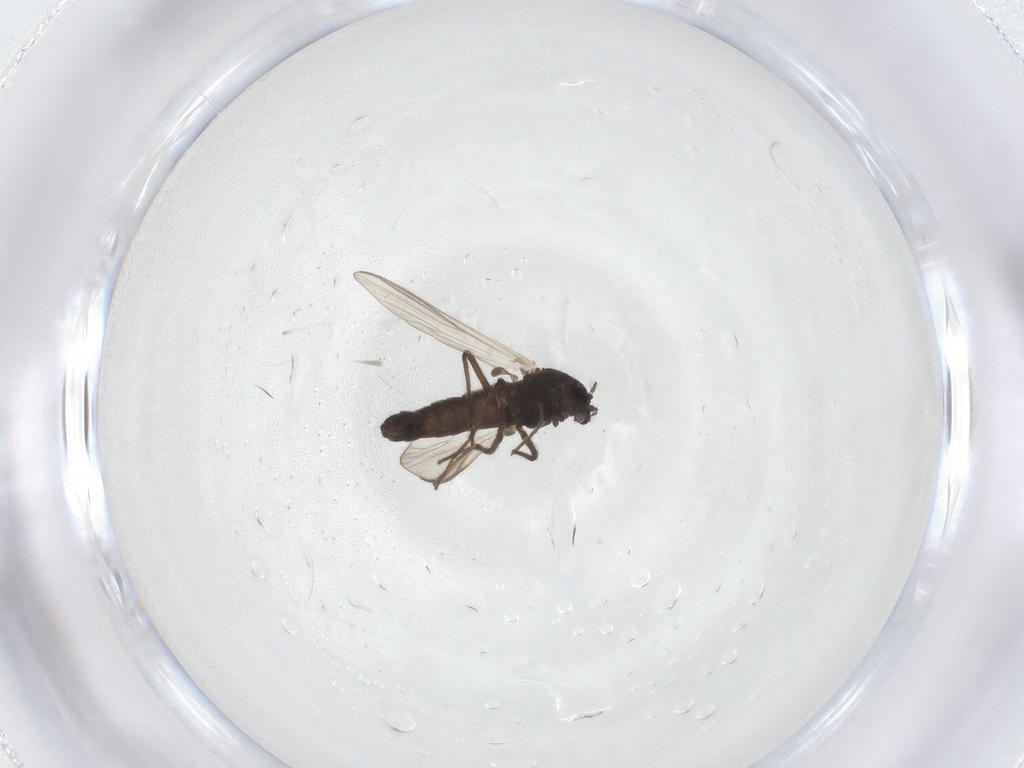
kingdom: Animalia
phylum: Arthropoda
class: Insecta
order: Diptera
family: Chironomidae
